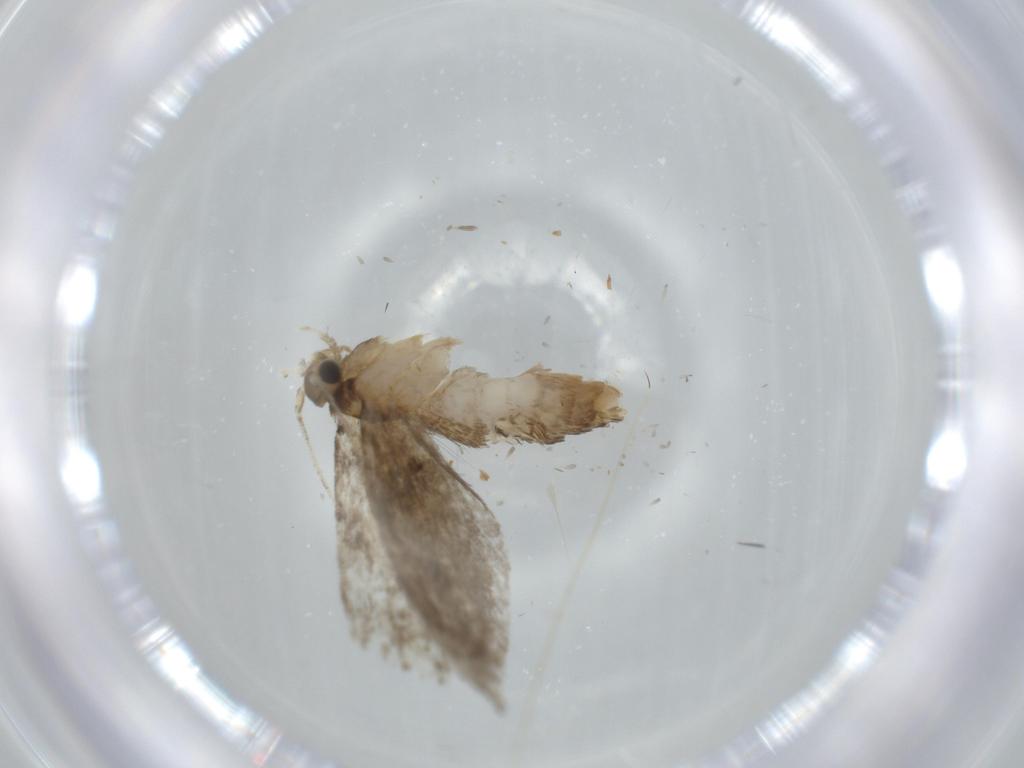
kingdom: Animalia
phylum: Arthropoda
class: Insecta
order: Lepidoptera
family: Tineidae
